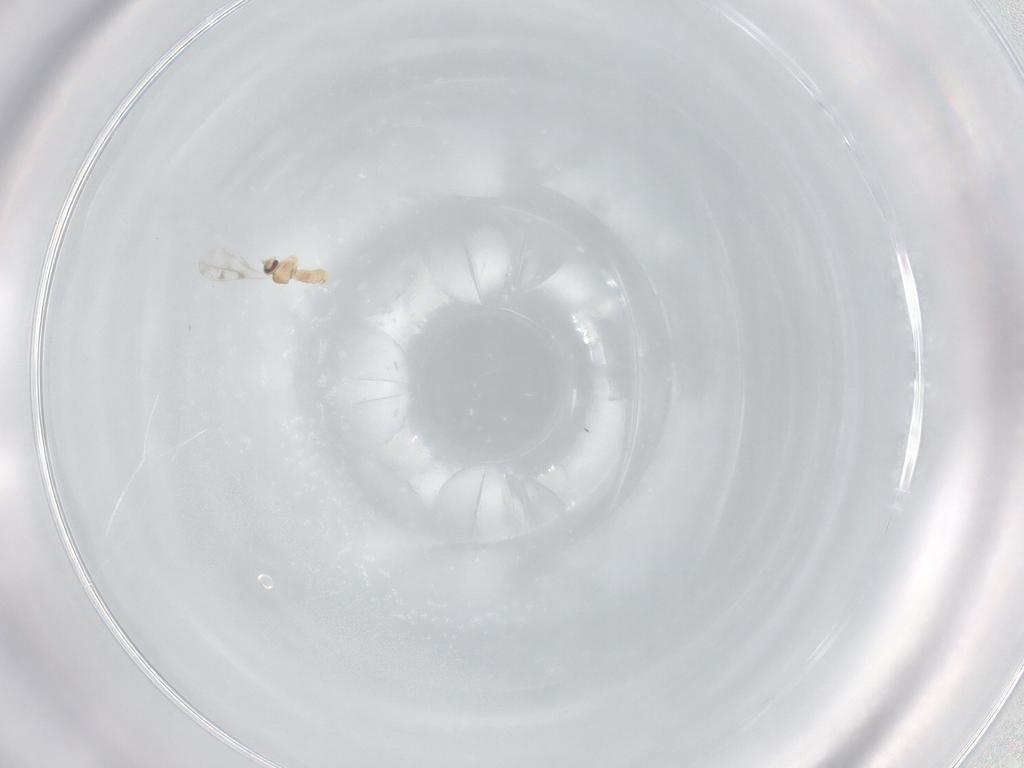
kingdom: Animalia
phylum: Arthropoda
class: Insecta
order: Diptera
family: Cecidomyiidae
